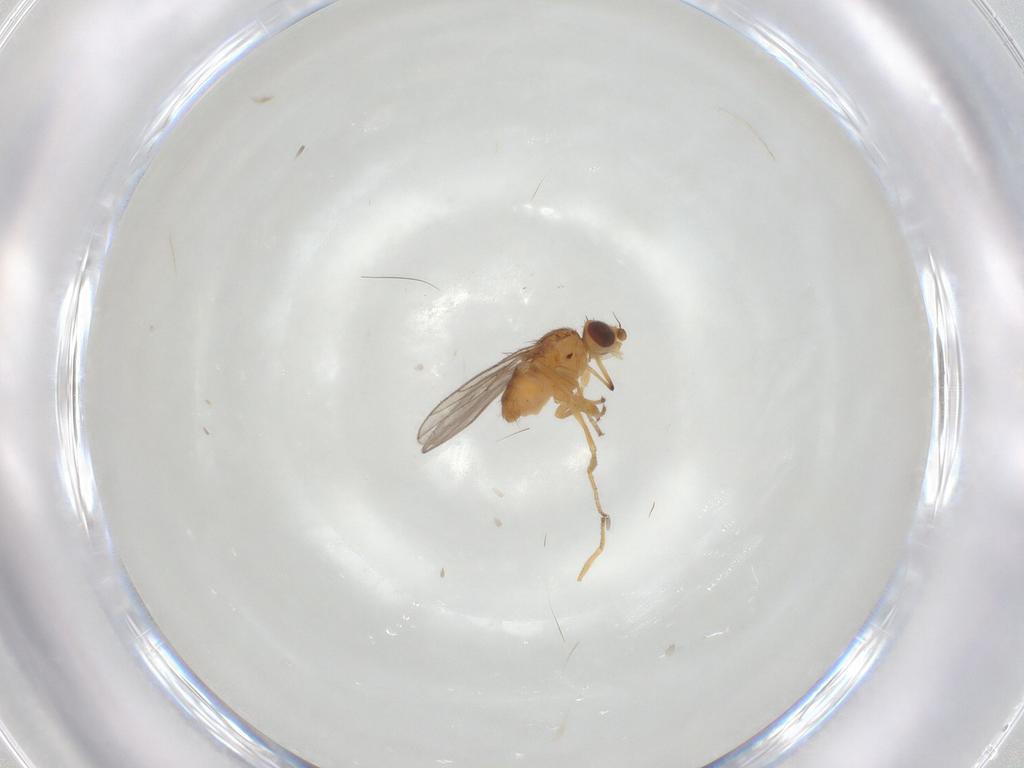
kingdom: Animalia
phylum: Arthropoda
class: Insecta
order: Diptera
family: Chloropidae
